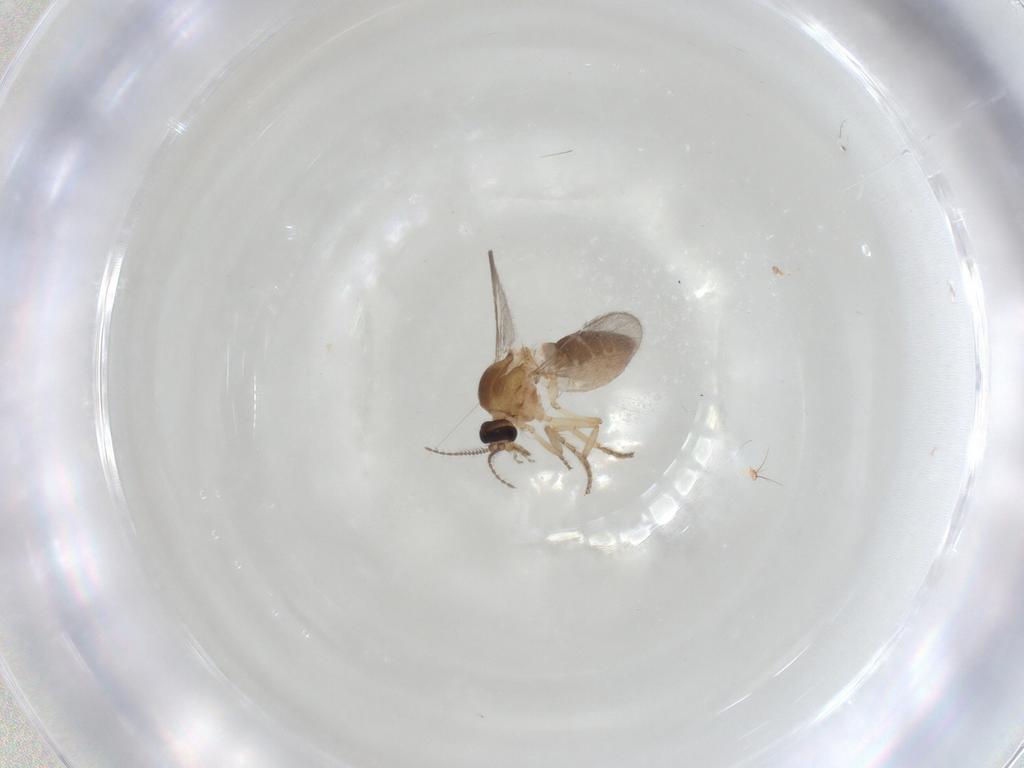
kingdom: Animalia
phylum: Arthropoda
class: Insecta
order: Diptera
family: Ceratopogonidae
